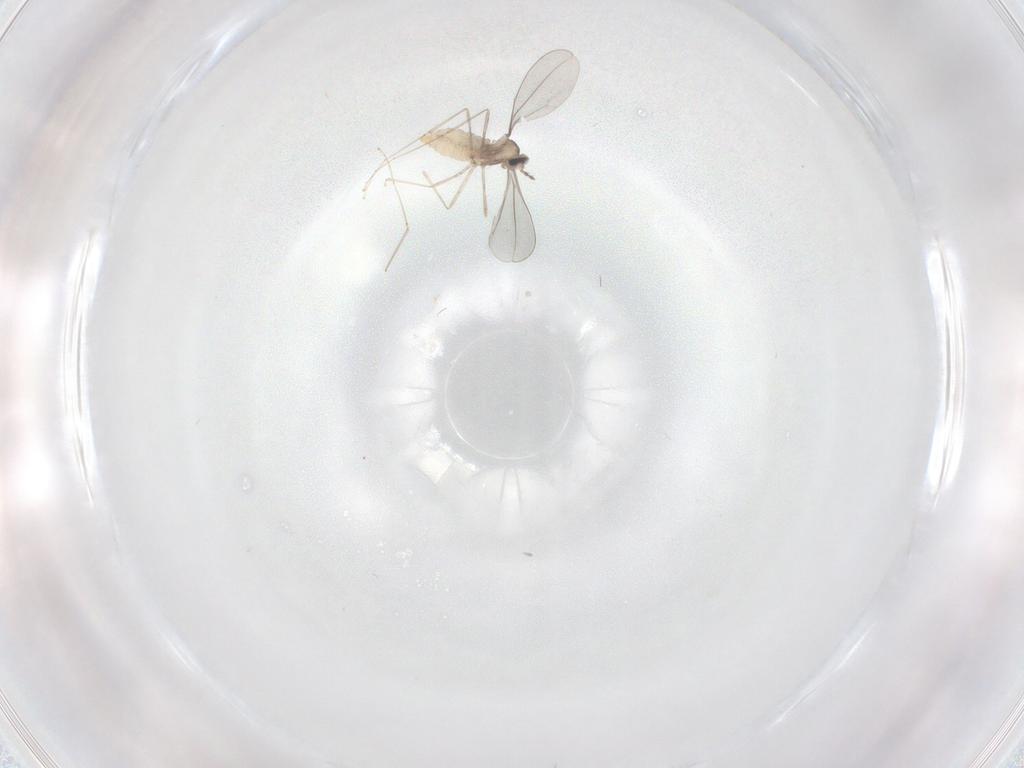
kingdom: Animalia
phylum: Arthropoda
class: Insecta
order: Diptera
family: Cecidomyiidae
